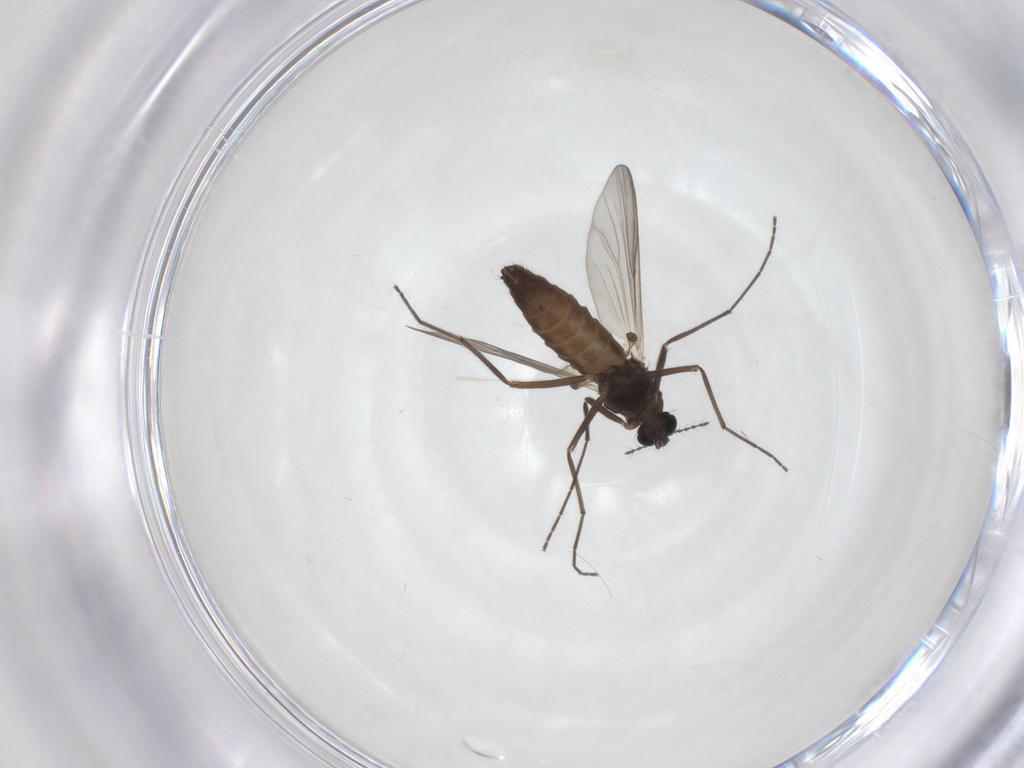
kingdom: Animalia
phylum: Arthropoda
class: Insecta
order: Diptera
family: Chironomidae
